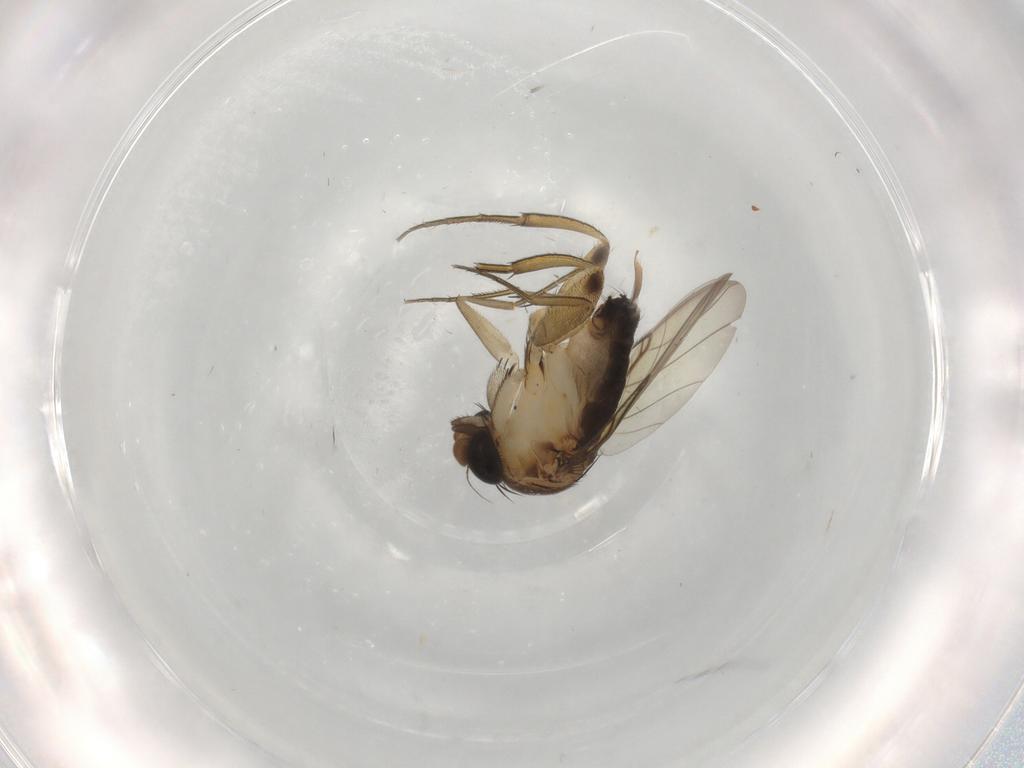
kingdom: Animalia
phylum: Arthropoda
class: Insecta
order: Diptera
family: Phoridae
